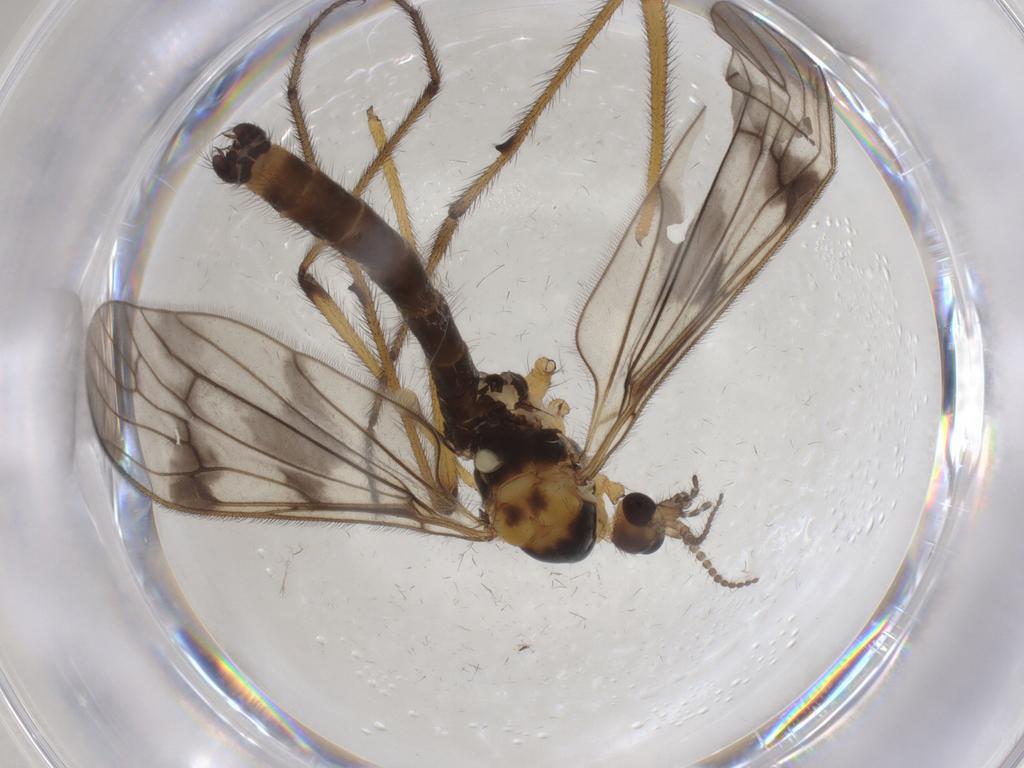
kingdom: Animalia
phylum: Arthropoda
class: Insecta
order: Diptera
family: Limoniidae
